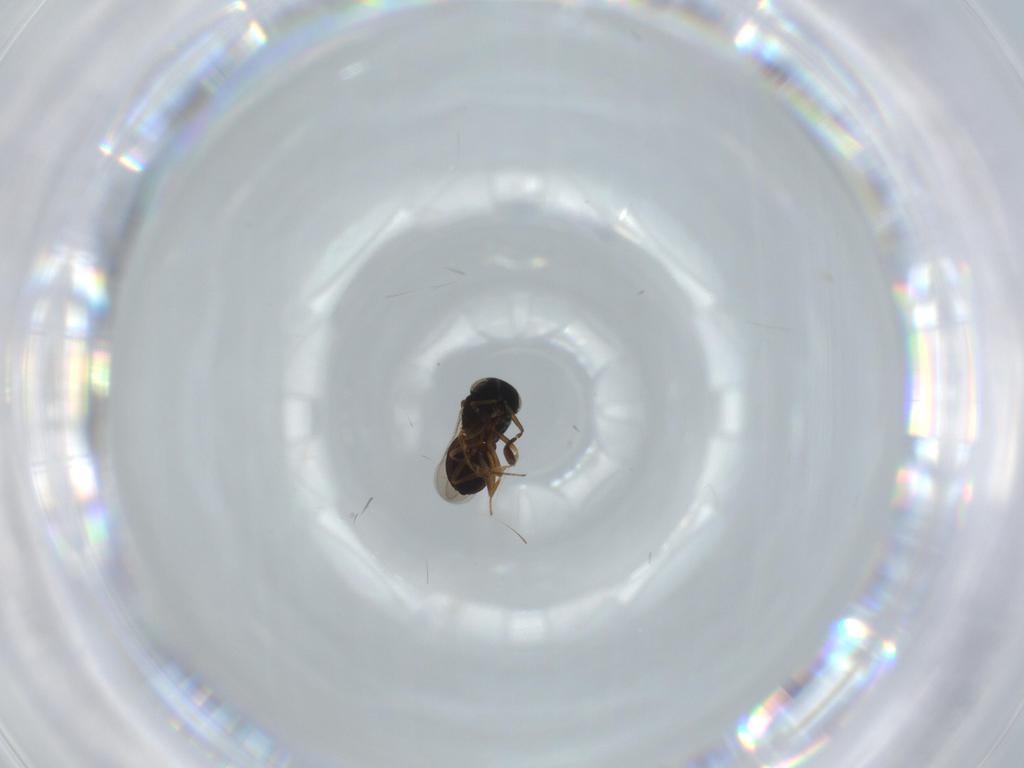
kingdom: Animalia
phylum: Arthropoda
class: Insecta
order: Coleoptera
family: Curculionidae
